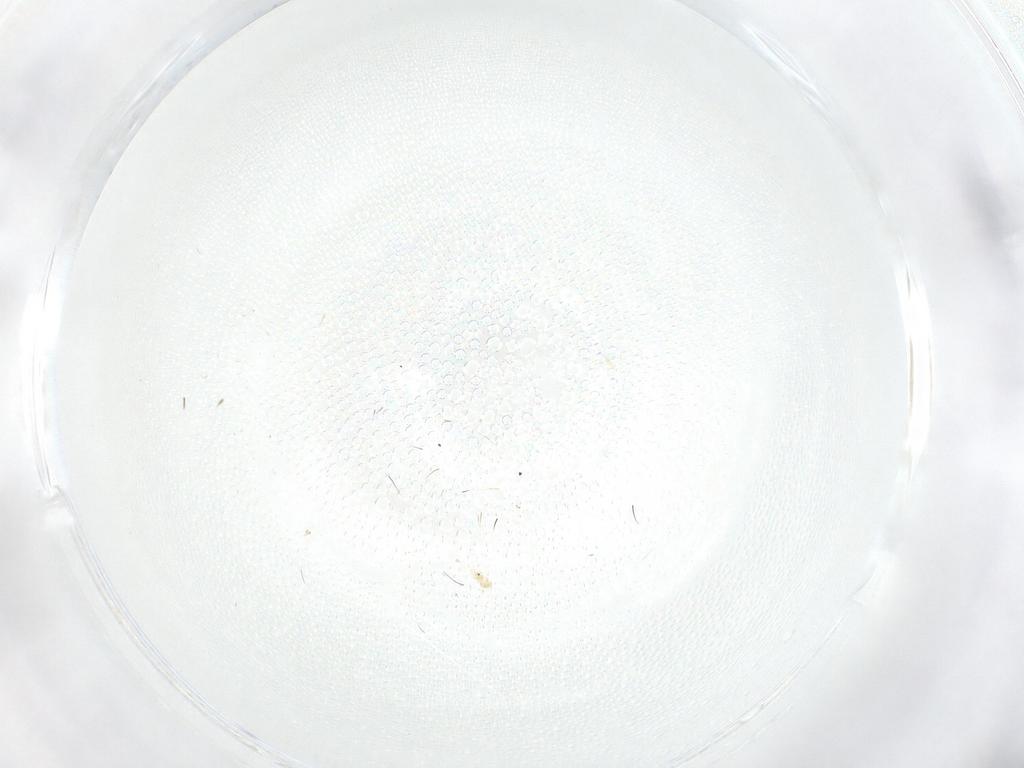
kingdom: Animalia
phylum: Arthropoda
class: Insecta
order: Diptera
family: Cecidomyiidae
